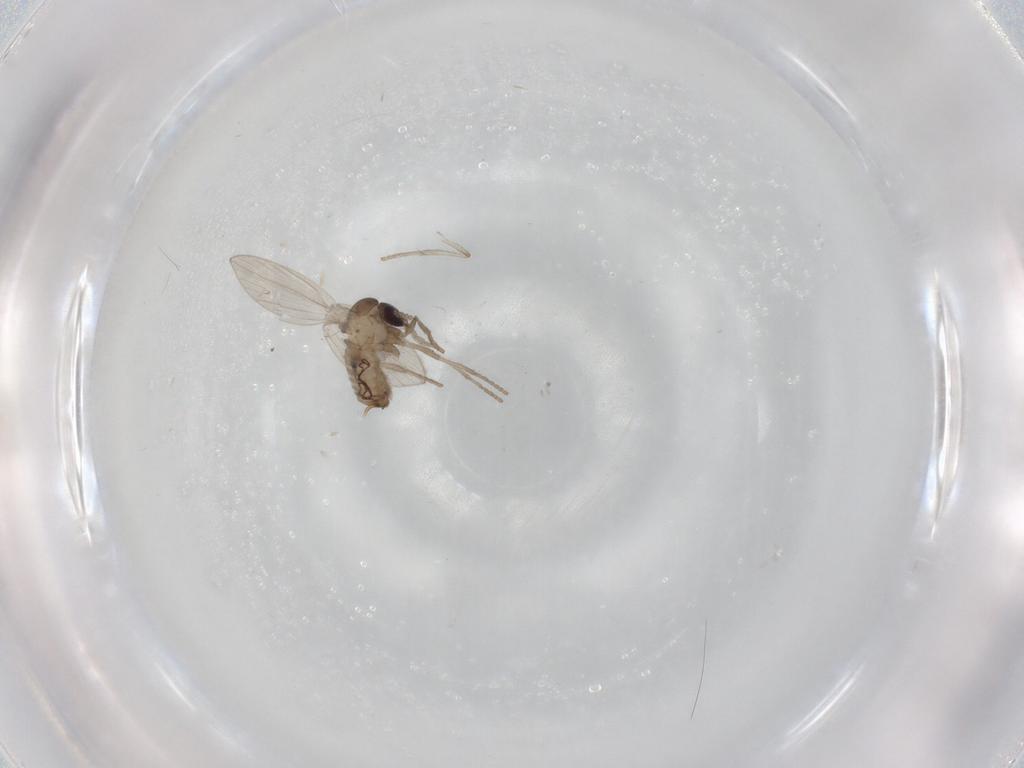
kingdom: Animalia
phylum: Arthropoda
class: Insecta
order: Diptera
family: Psychodidae
